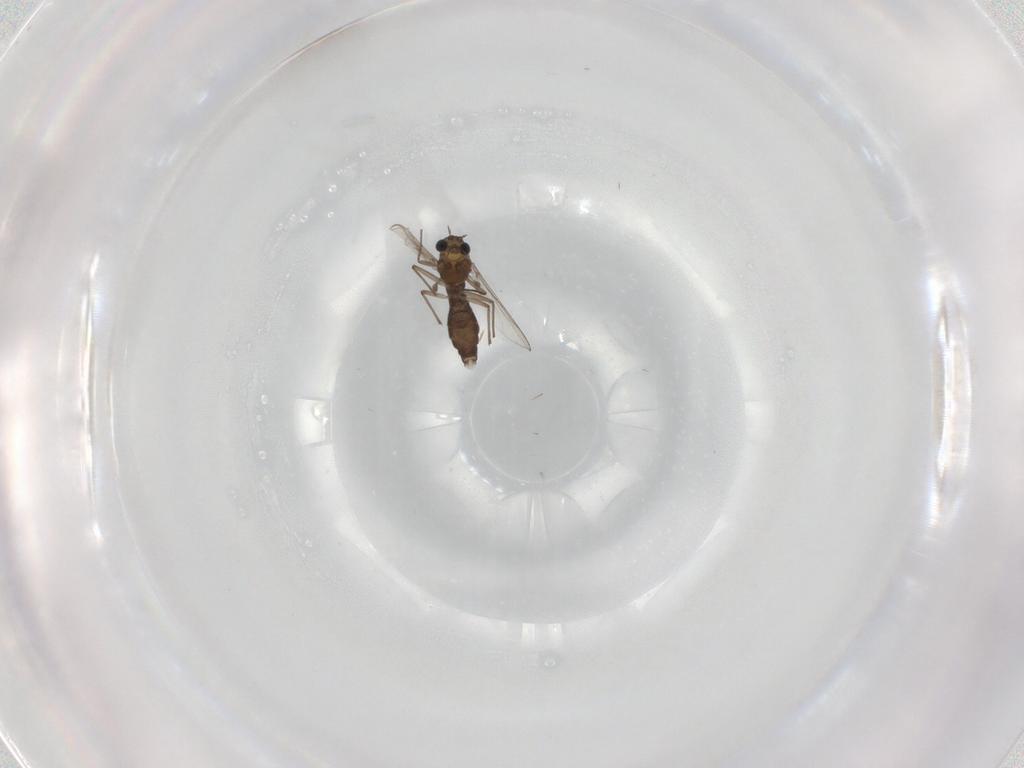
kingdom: Animalia
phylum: Arthropoda
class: Insecta
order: Diptera
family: Chironomidae
